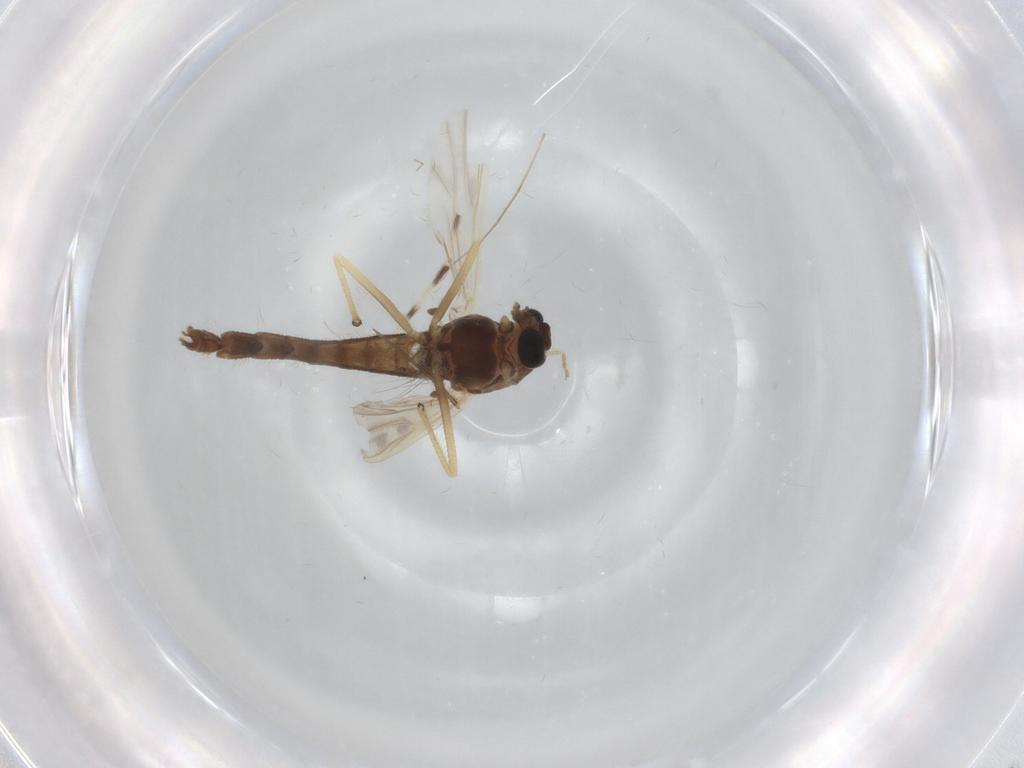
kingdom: Animalia
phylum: Arthropoda
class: Insecta
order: Diptera
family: Chironomidae
